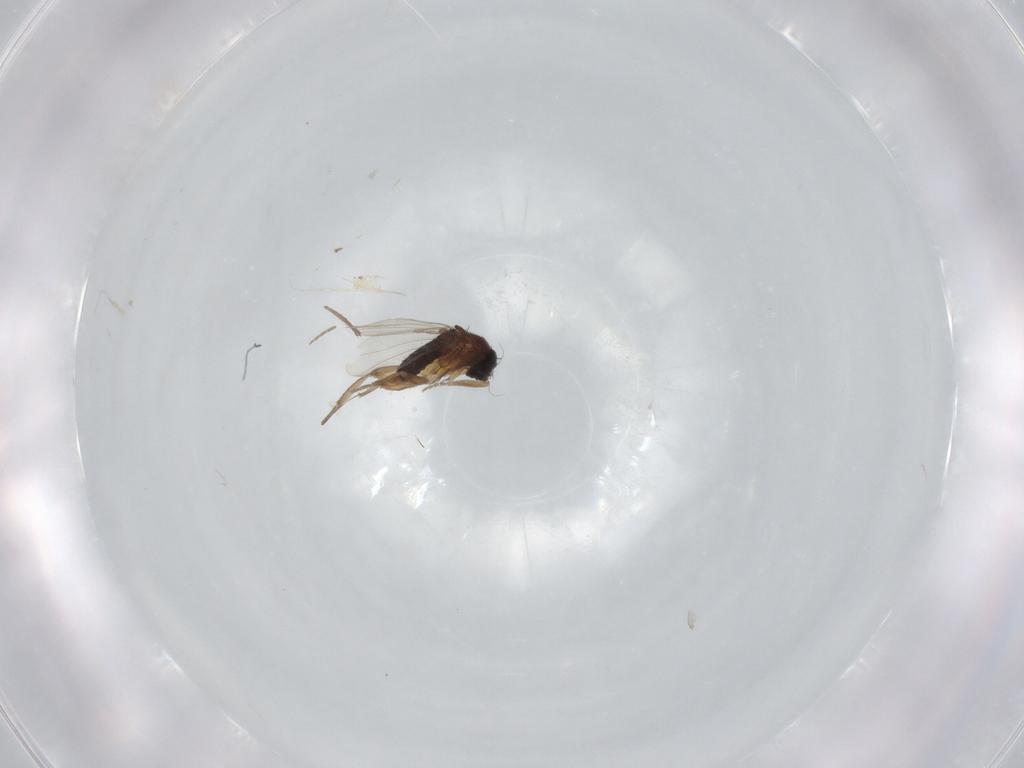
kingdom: Animalia
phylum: Arthropoda
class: Insecta
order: Diptera
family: Phoridae
